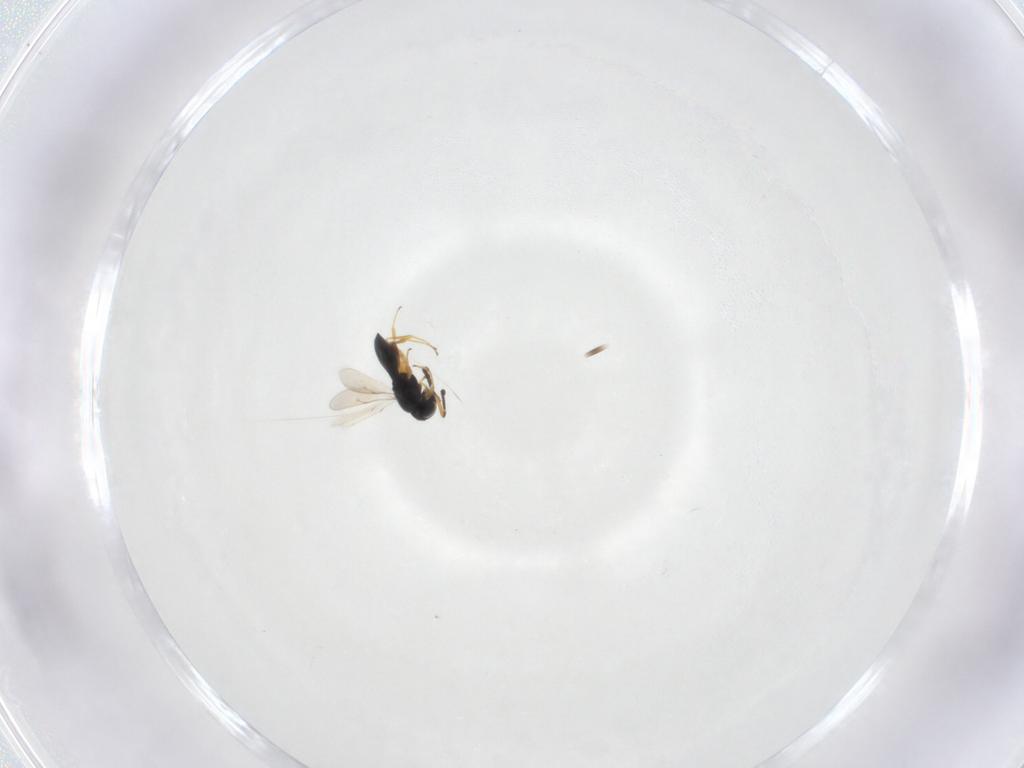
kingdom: Animalia
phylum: Arthropoda
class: Insecta
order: Hymenoptera
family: Scelionidae
